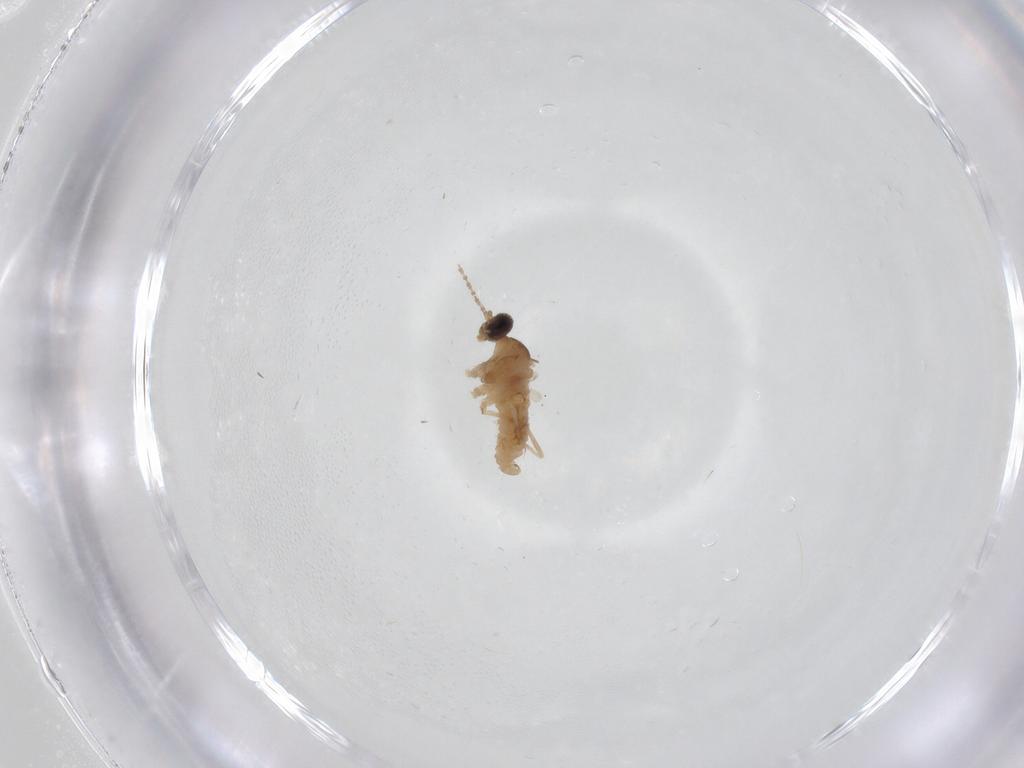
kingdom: Animalia
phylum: Arthropoda
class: Insecta
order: Diptera
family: Cecidomyiidae
